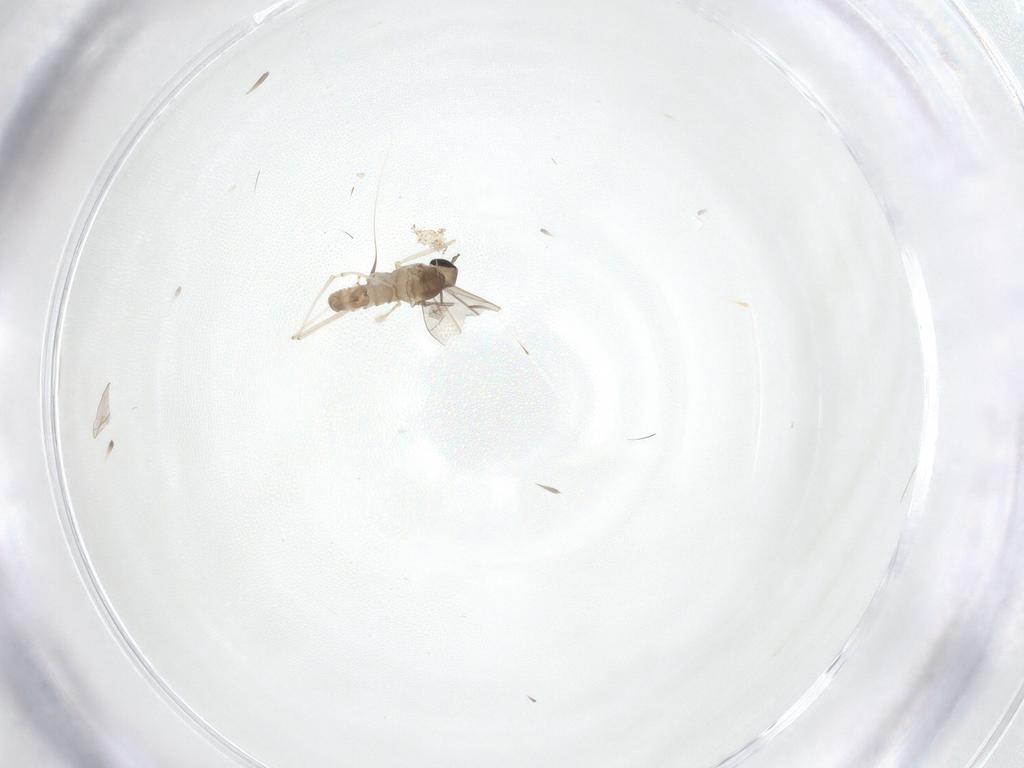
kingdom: Animalia
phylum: Arthropoda
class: Insecta
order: Diptera
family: Cecidomyiidae
